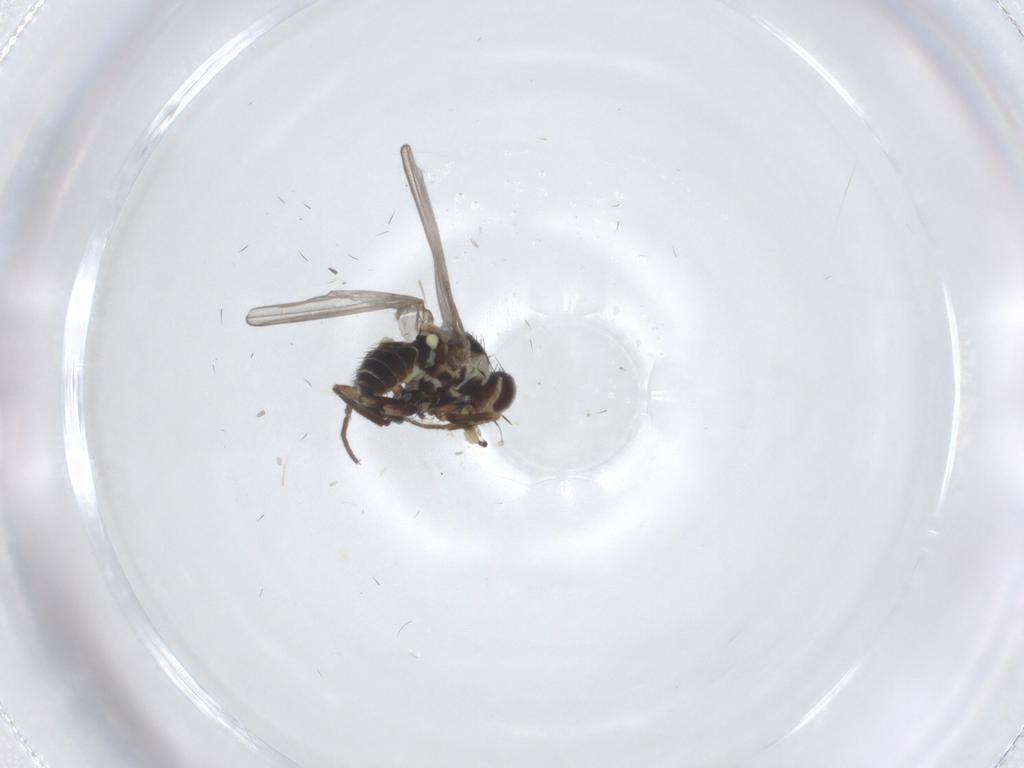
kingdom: Animalia
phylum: Arthropoda
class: Insecta
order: Diptera
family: Agromyzidae
